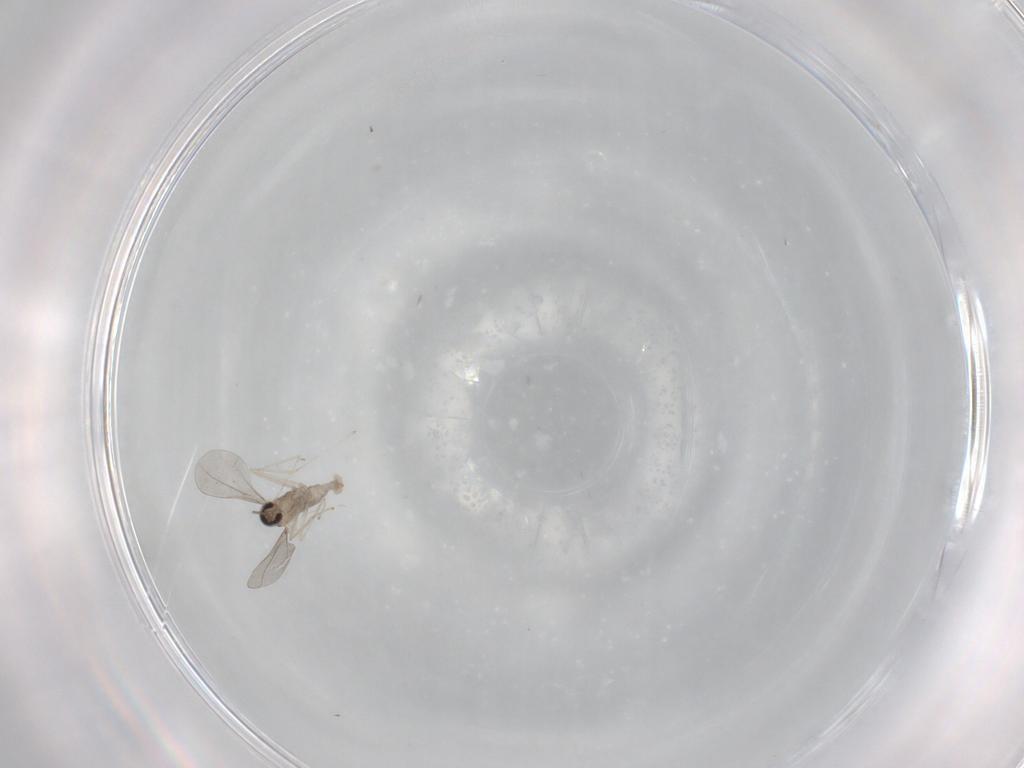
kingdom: Animalia
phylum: Arthropoda
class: Insecta
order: Diptera
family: Cecidomyiidae
